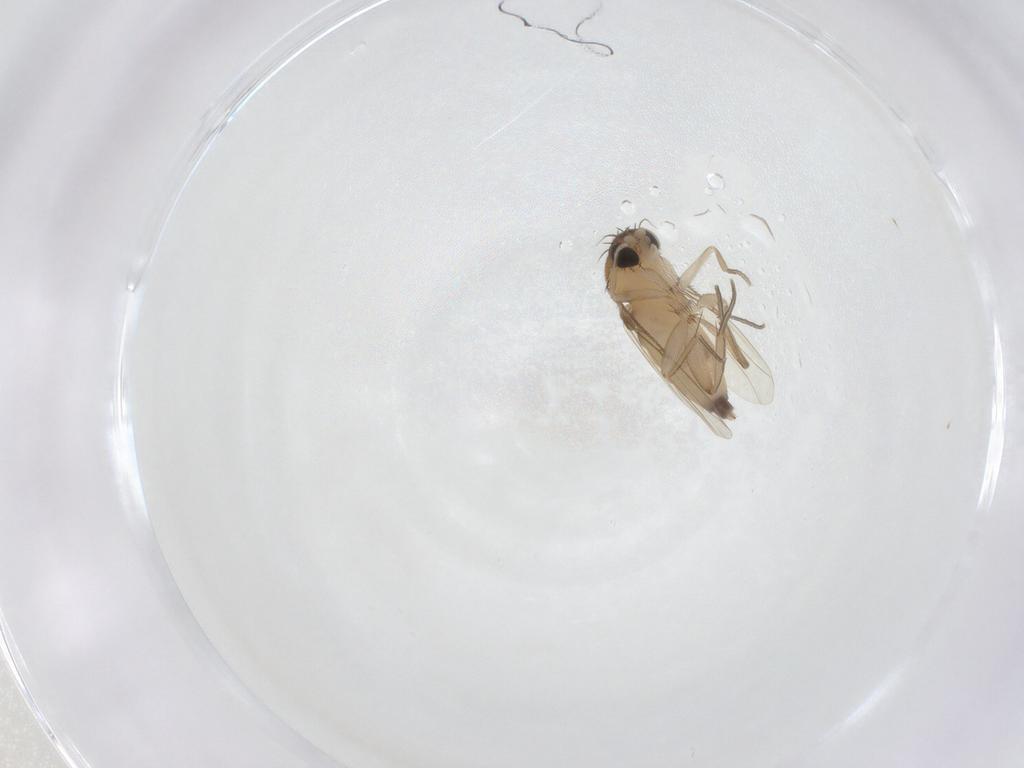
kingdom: Animalia
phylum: Arthropoda
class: Insecta
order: Diptera
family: Phoridae
